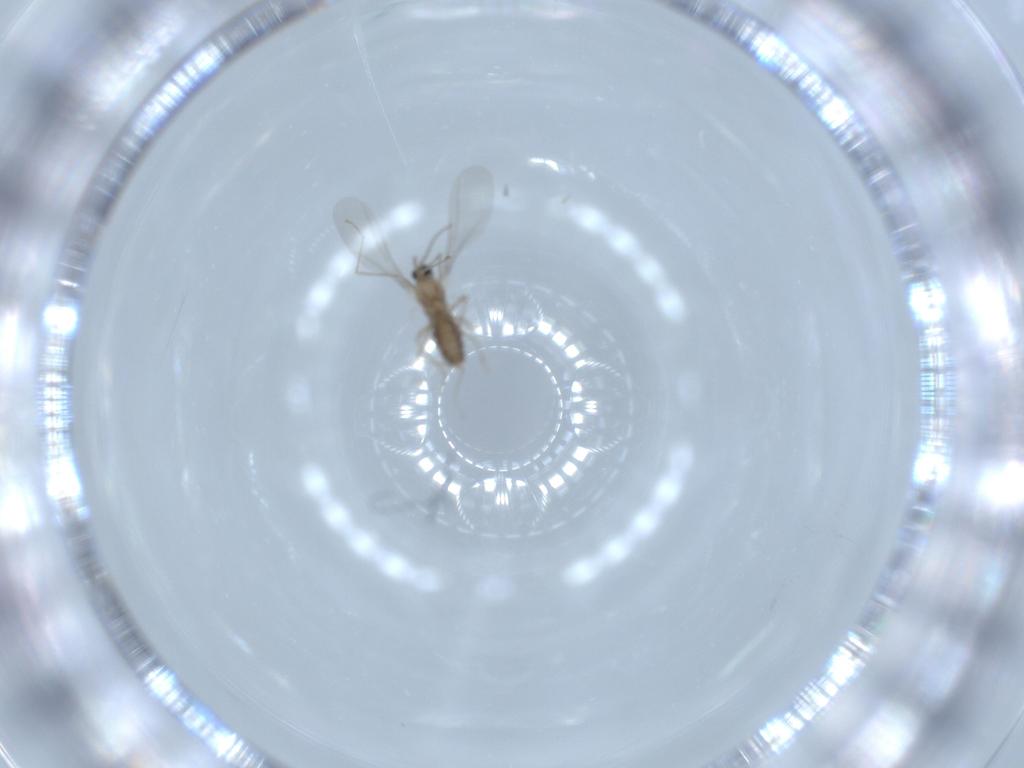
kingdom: Animalia
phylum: Arthropoda
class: Insecta
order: Diptera
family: Cecidomyiidae
